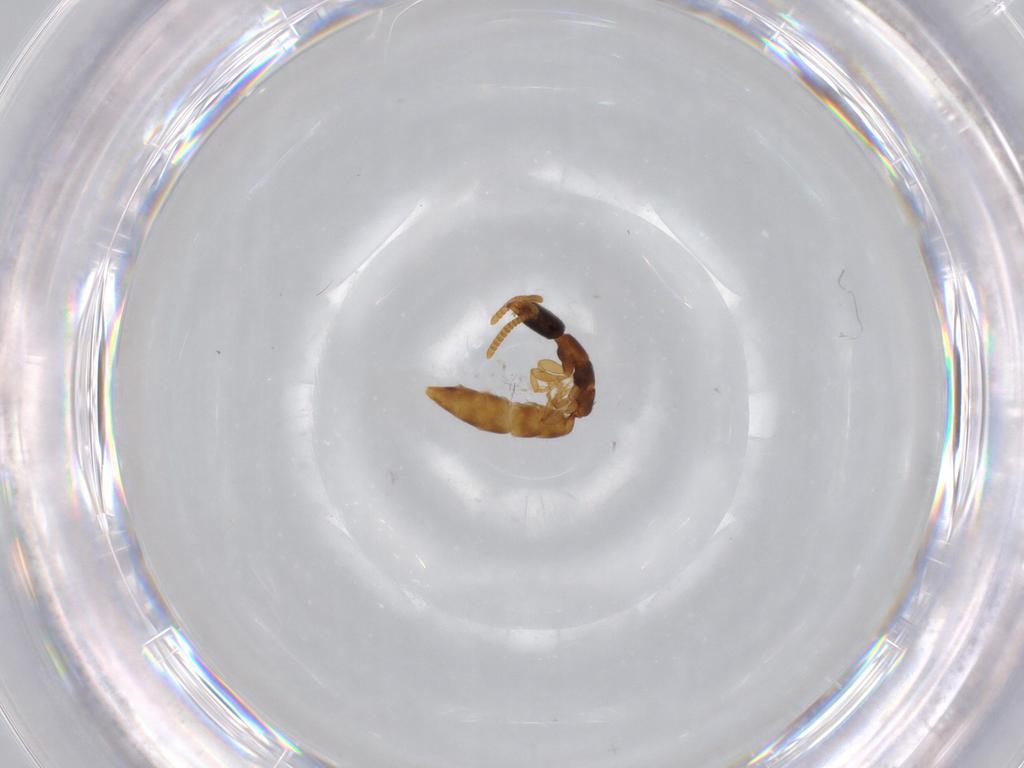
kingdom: Animalia
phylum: Arthropoda
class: Insecta
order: Hymenoptera
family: Bethylidae
